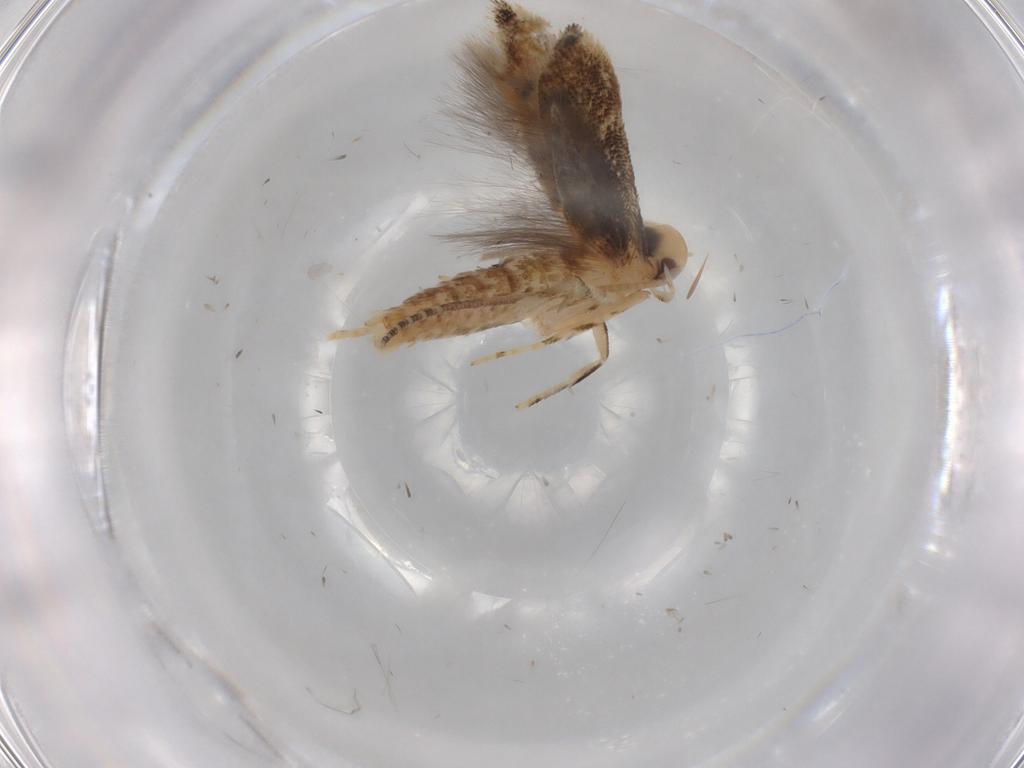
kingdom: Animalia
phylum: Arthropoda
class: Insecta
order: Lepidoptera
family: Momphidae
